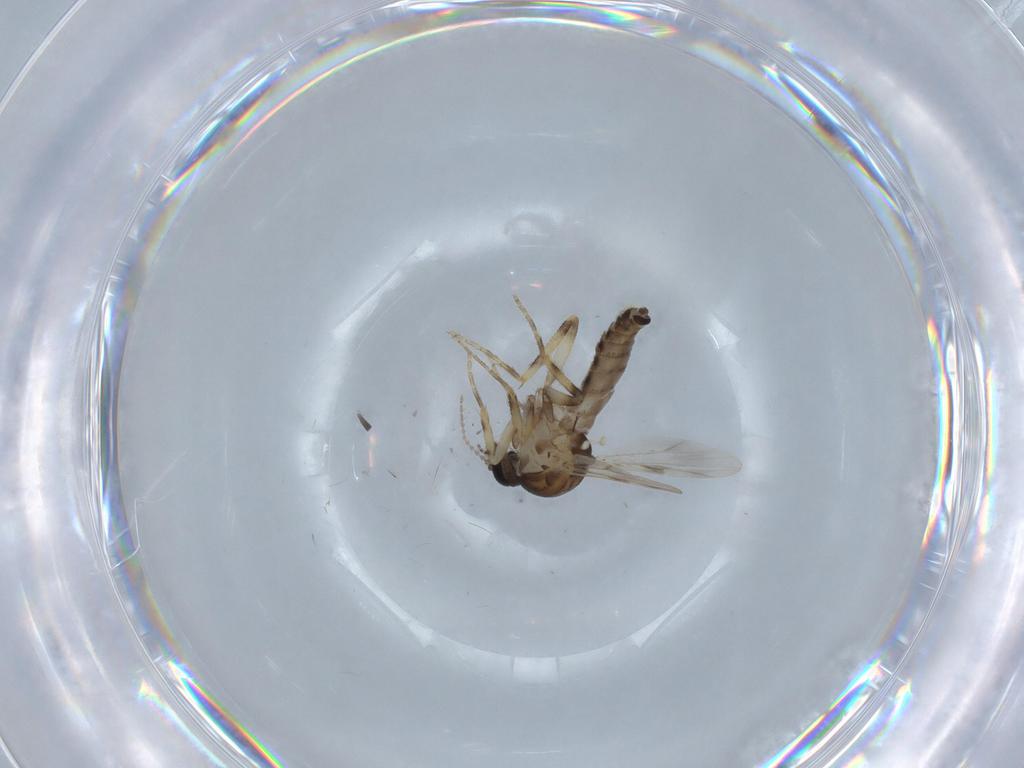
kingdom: Animalia
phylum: Arthropoda
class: Insecta
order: Diptera
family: Ceratopogonidae
